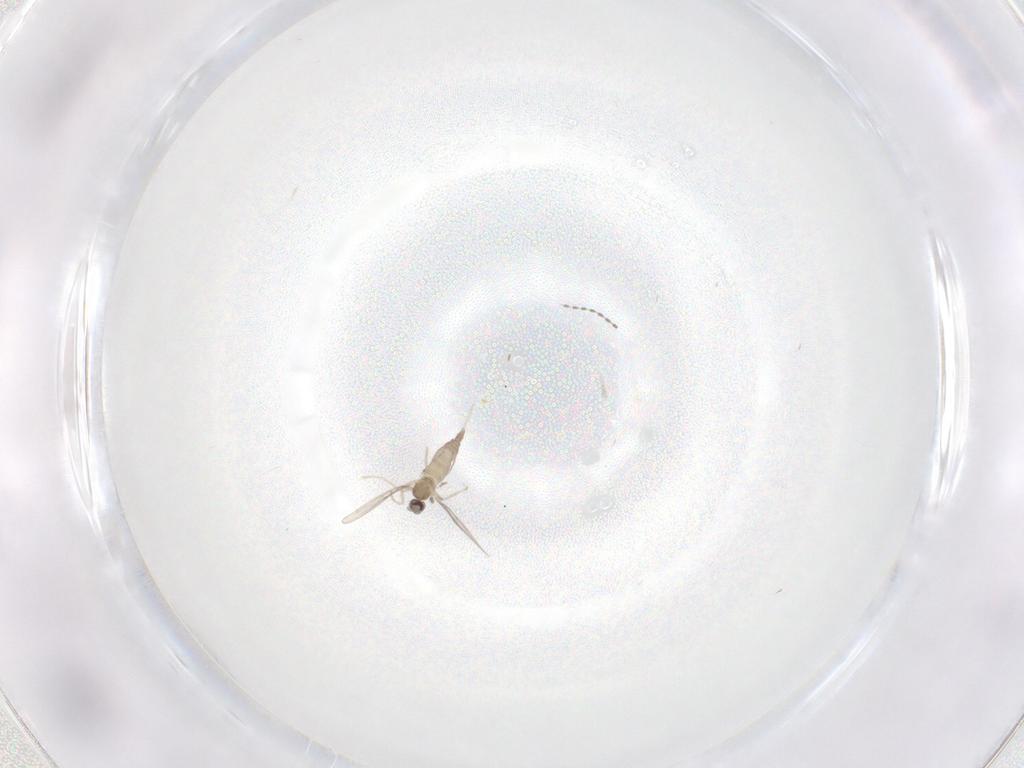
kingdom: Animalia
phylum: Arthropoda
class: Insecta
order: Diptera
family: Cecidomyiidae
